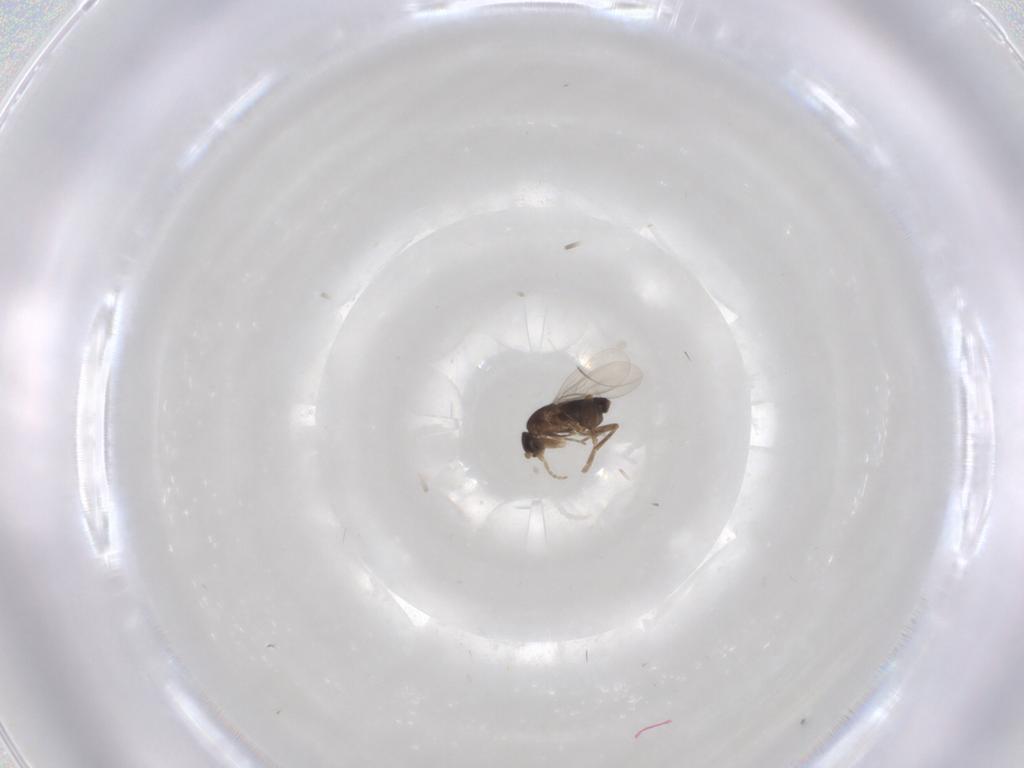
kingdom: Animalia
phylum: Arthropoda
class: Insecta
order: Diptera
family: Phoridae
